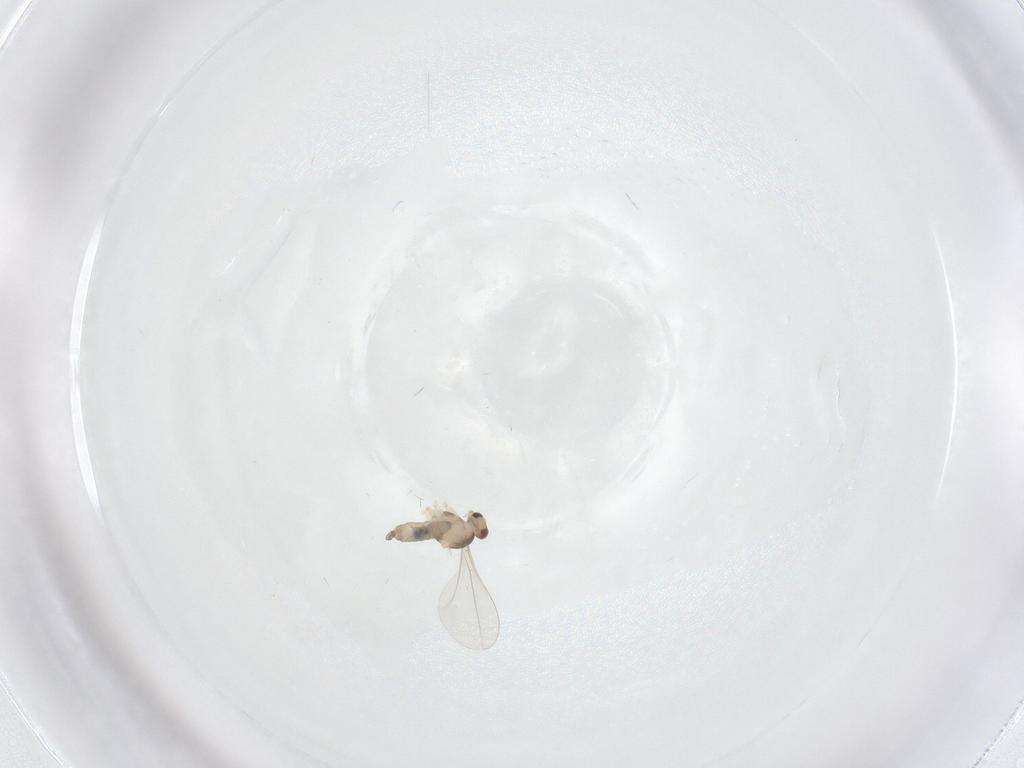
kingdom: Animalia
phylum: Arthropoda
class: Insecta
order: Diptera
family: Cecidomyiidae
